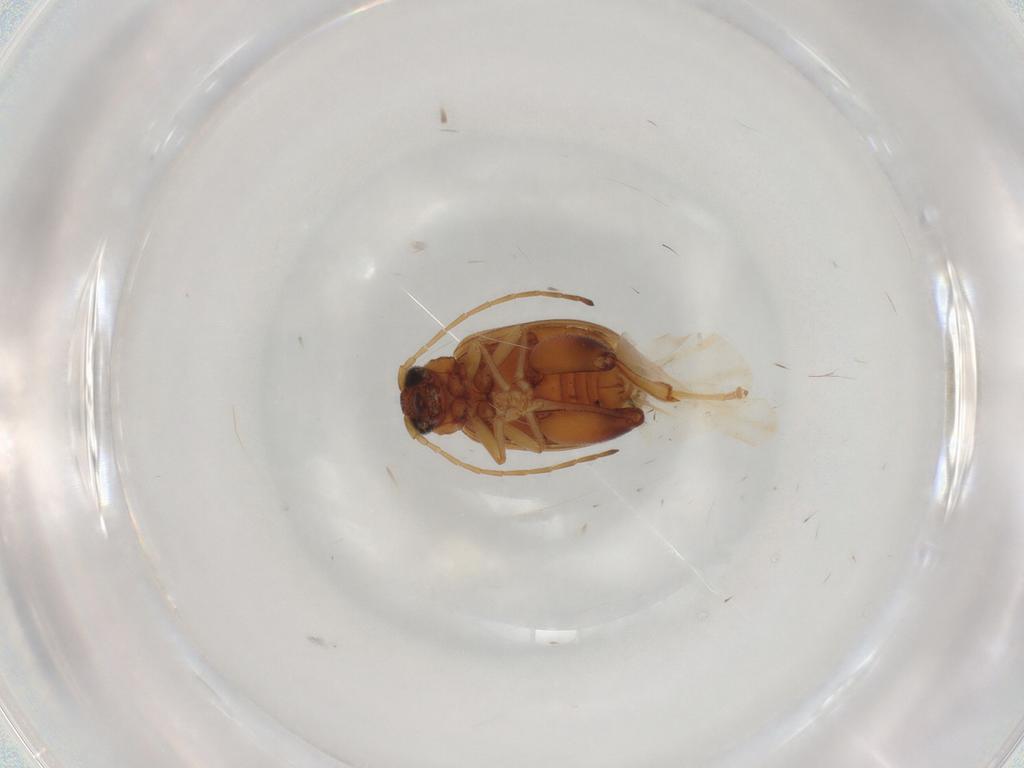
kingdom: Animalia
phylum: Arthropoda
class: Insecta
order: Coleoptera
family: Chrysomelidae
